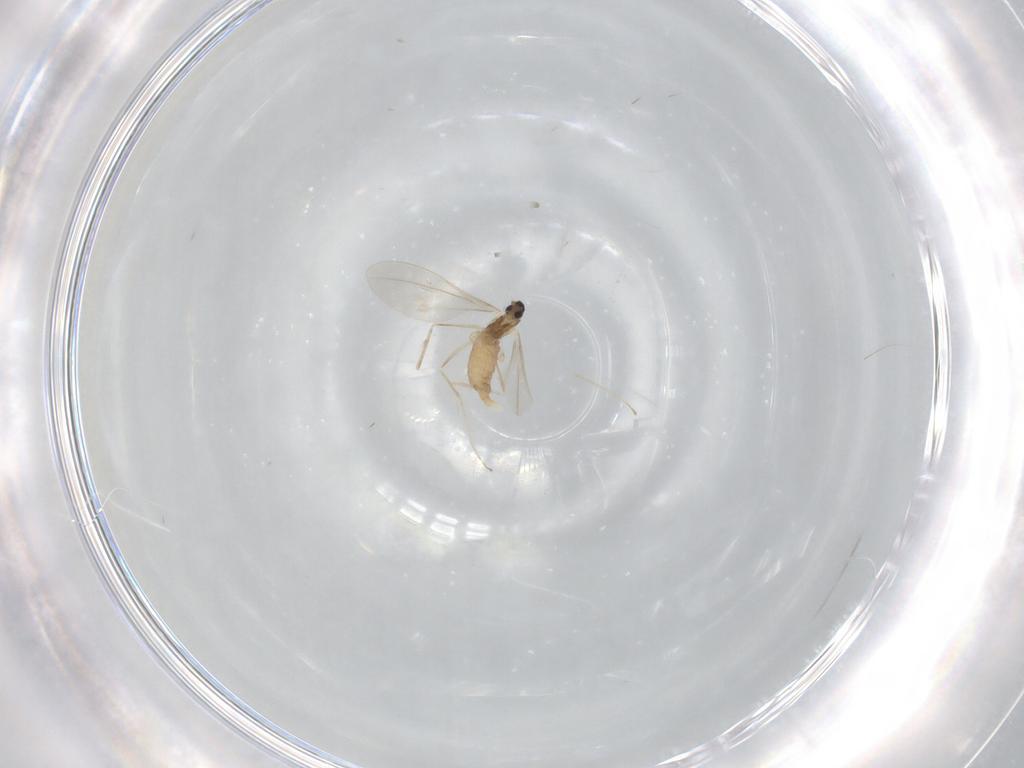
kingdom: Animalia
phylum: Arthropoda
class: Insecta
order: Diptera
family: Cecidomyiidae
